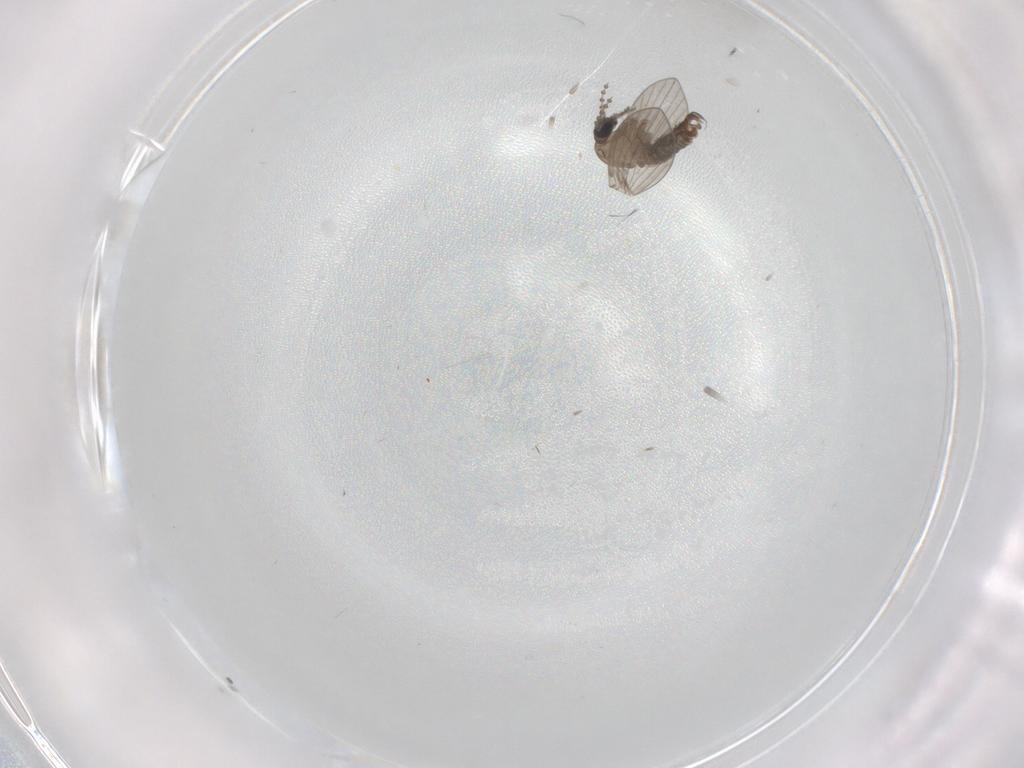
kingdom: Animalia
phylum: Arthropoda
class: Insecta
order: Diptera
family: Psychodidae
